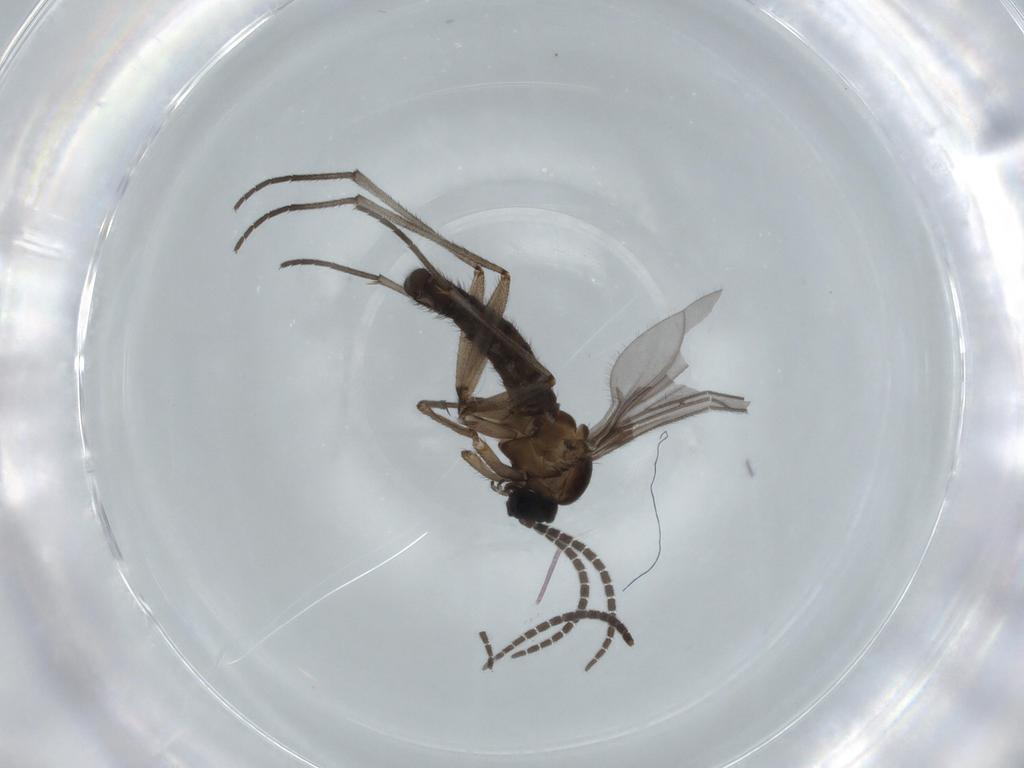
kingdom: Animalia
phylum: Arthropoda
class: Insecta
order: Diptera
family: Sciaridae
